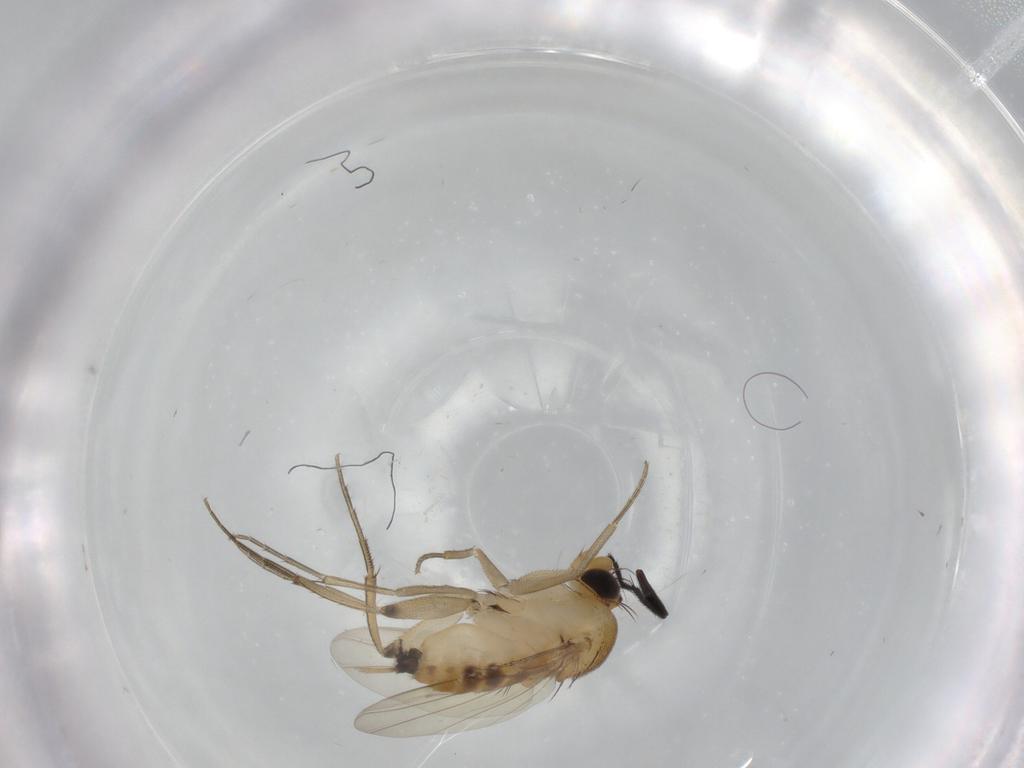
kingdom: Animalia
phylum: Arthropoda
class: Insecta
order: Diptera
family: Phoridae
